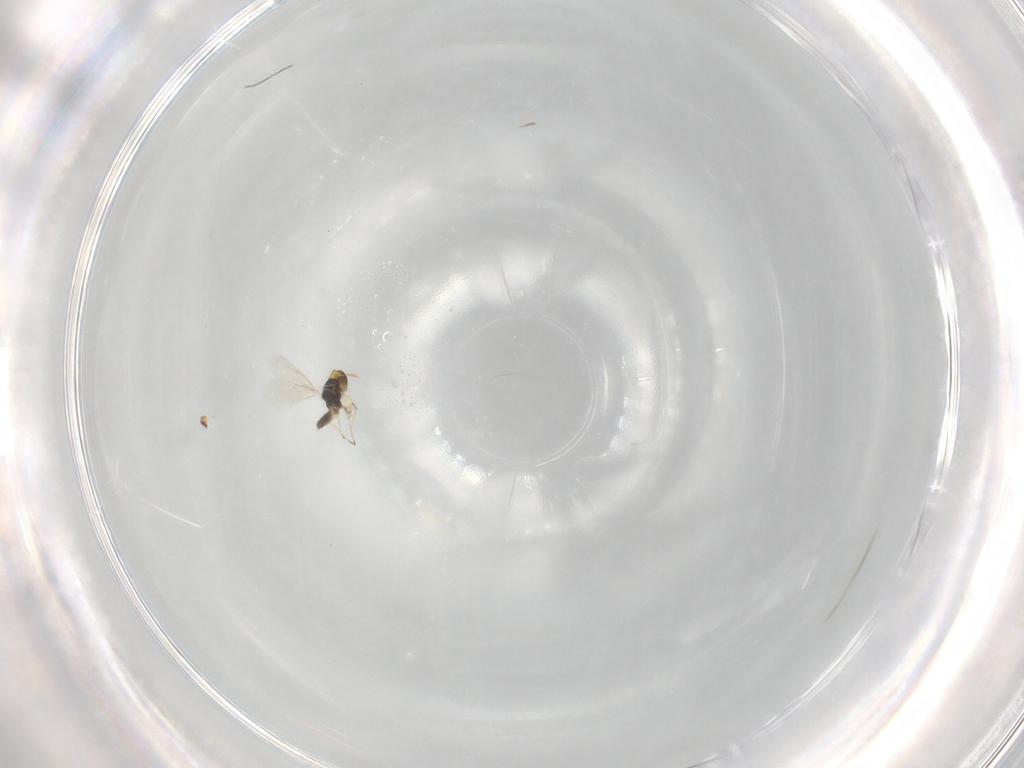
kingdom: Animalia
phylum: Arthropoda
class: Insecta
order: Hymenoptera
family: Eulophidae
